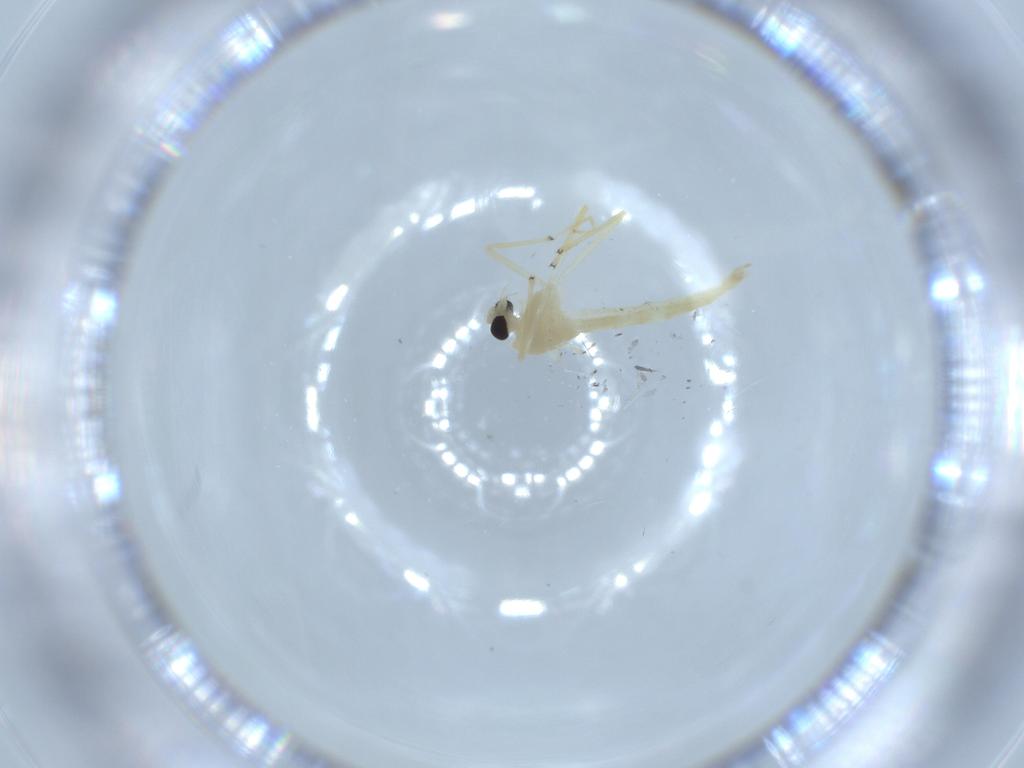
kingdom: Animalia
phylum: Arthropoda
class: Insecta
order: Diptera
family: Chironomidae
